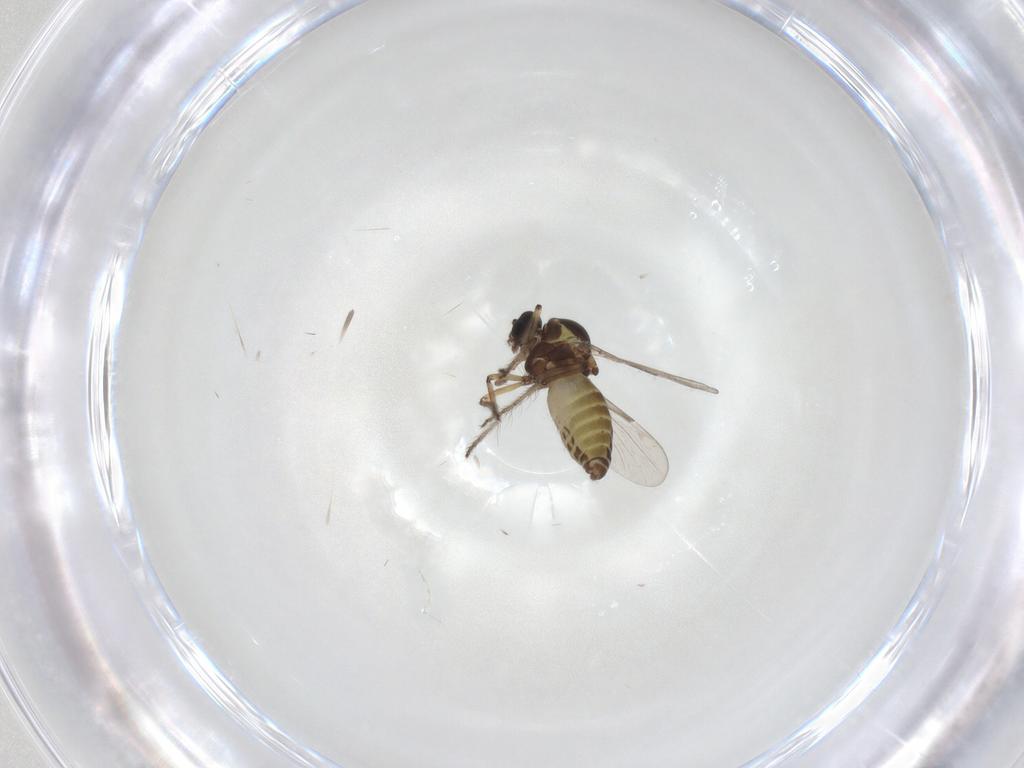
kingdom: Animalia
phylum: Arthropoda
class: Insecta
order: Diptera
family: Ceratopogonidae
